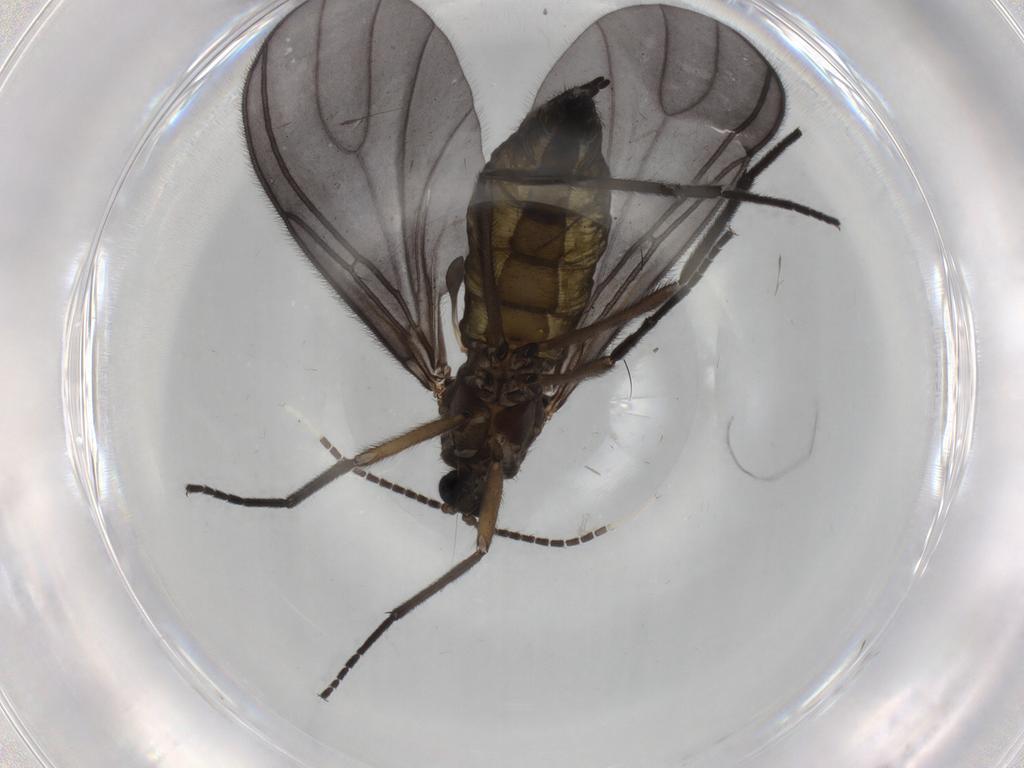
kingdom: Animalia
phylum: Arthropoda
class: Insecta
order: Diptera
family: Sciaridae
